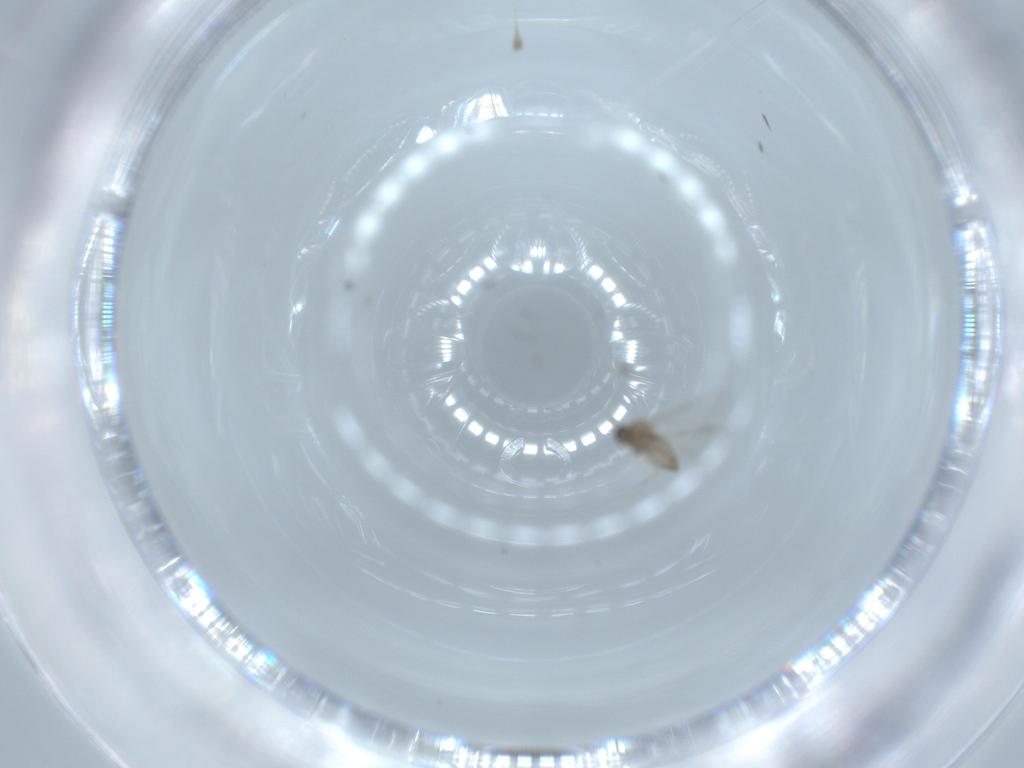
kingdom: Animalia
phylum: Arthropoda
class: Insecta
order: Diptera
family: Cecidomyiidae
